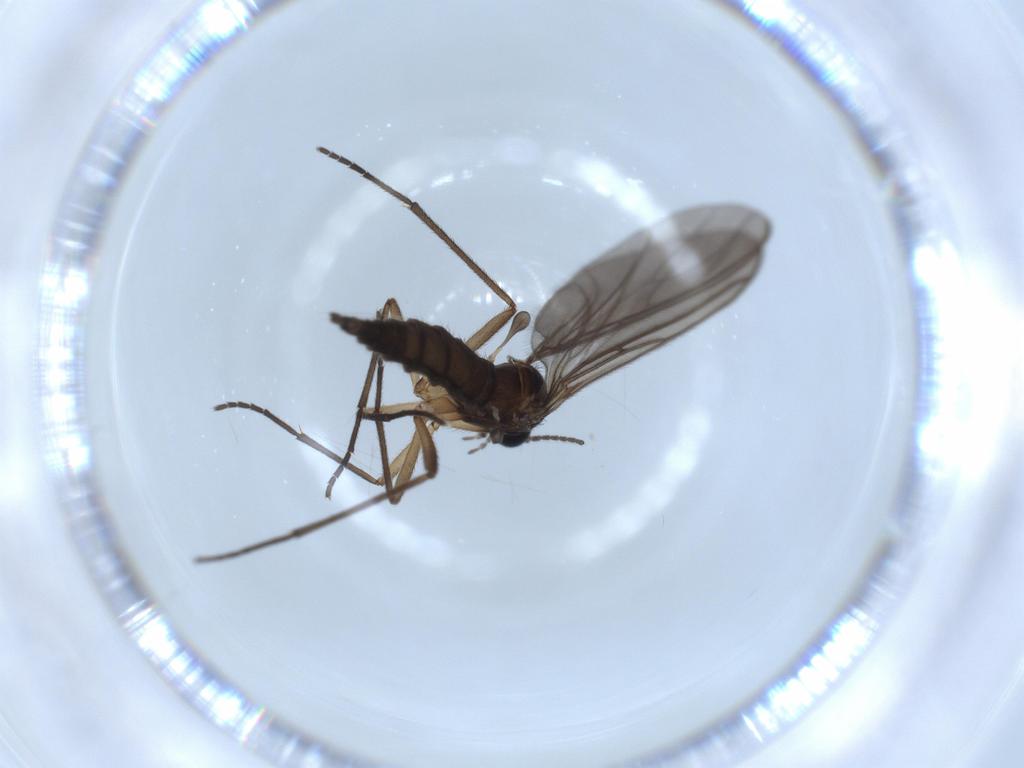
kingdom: Animalia
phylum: Arthropoda
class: Insecta
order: Diptera
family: Sciaridae
